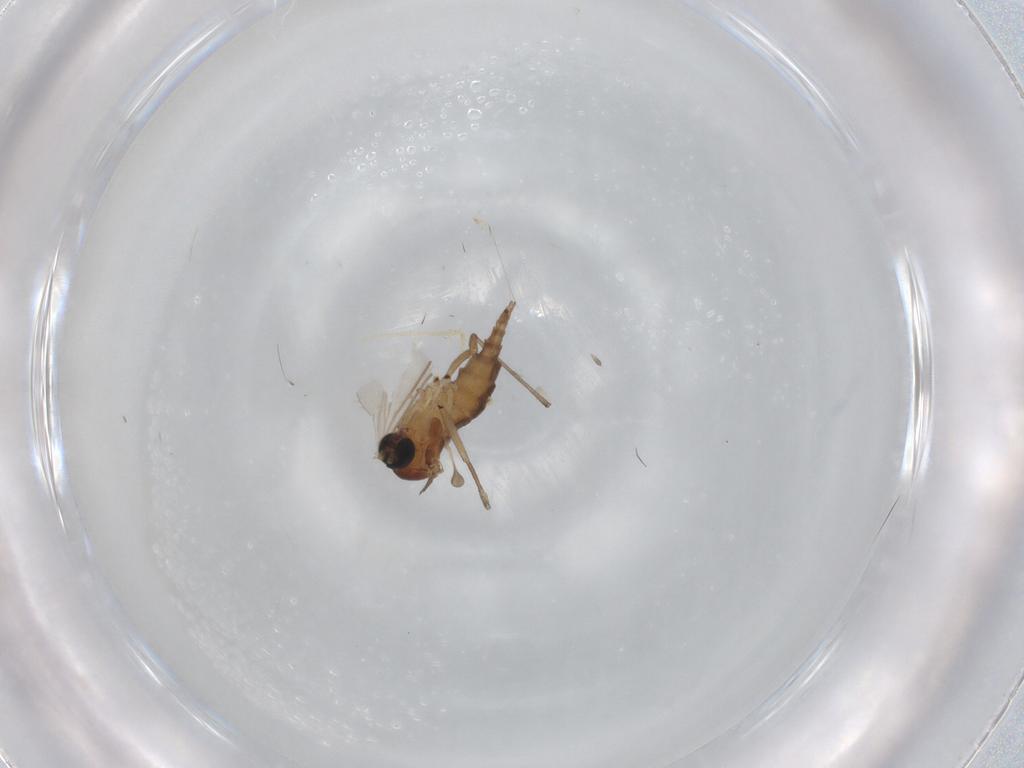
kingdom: Animalia
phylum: Arthropoda
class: Insecta
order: Diptera
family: Sciaridae
